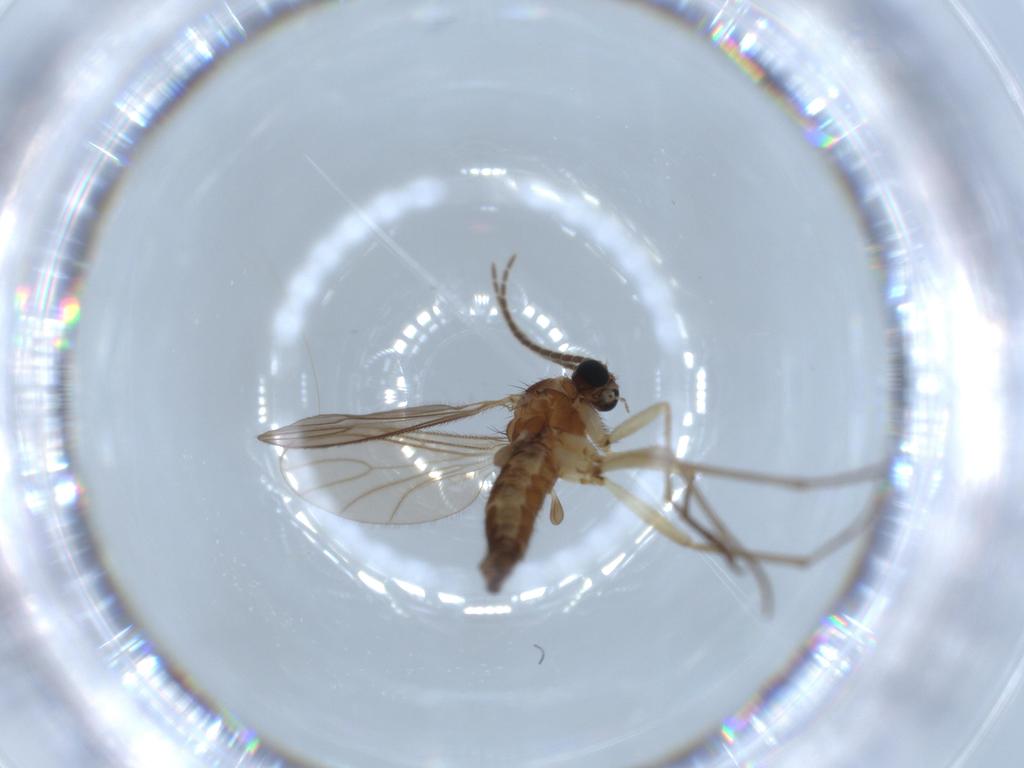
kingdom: Animalia
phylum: Arthropoda
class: Insecta
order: Diptera
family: Sciaridae
